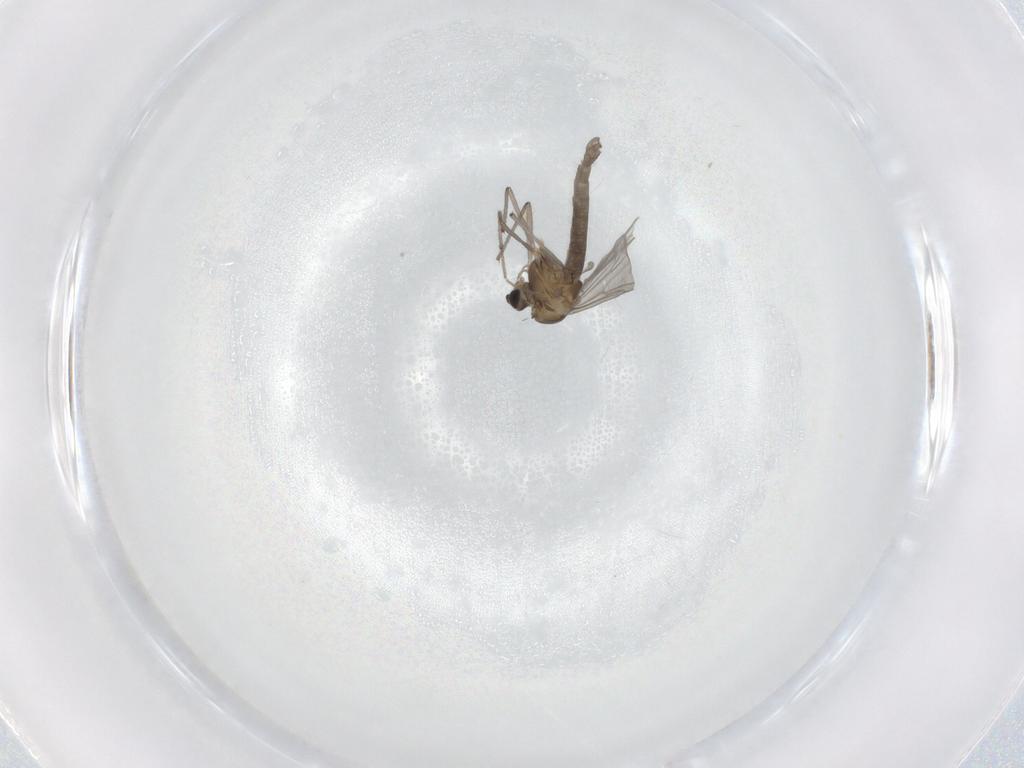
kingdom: Animalia
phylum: Arthropoda
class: Insecta
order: Diptera
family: Chironomidae
